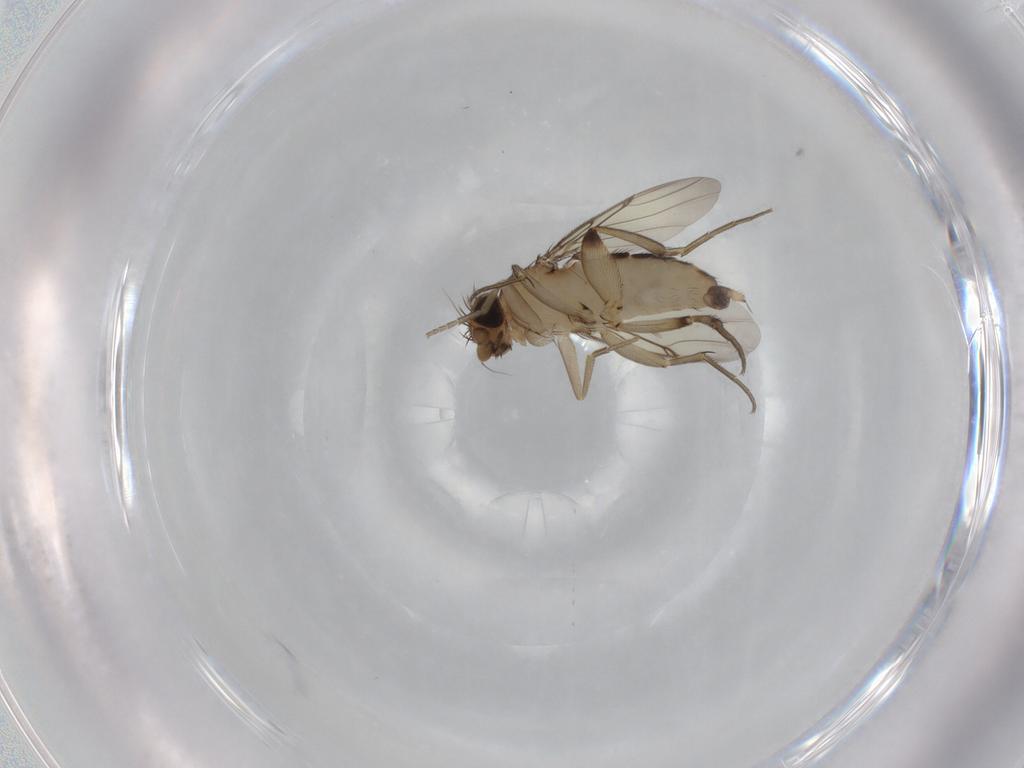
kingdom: Animalia
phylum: Arthropoda
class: Insecta
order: Diptera
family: Phoridae
